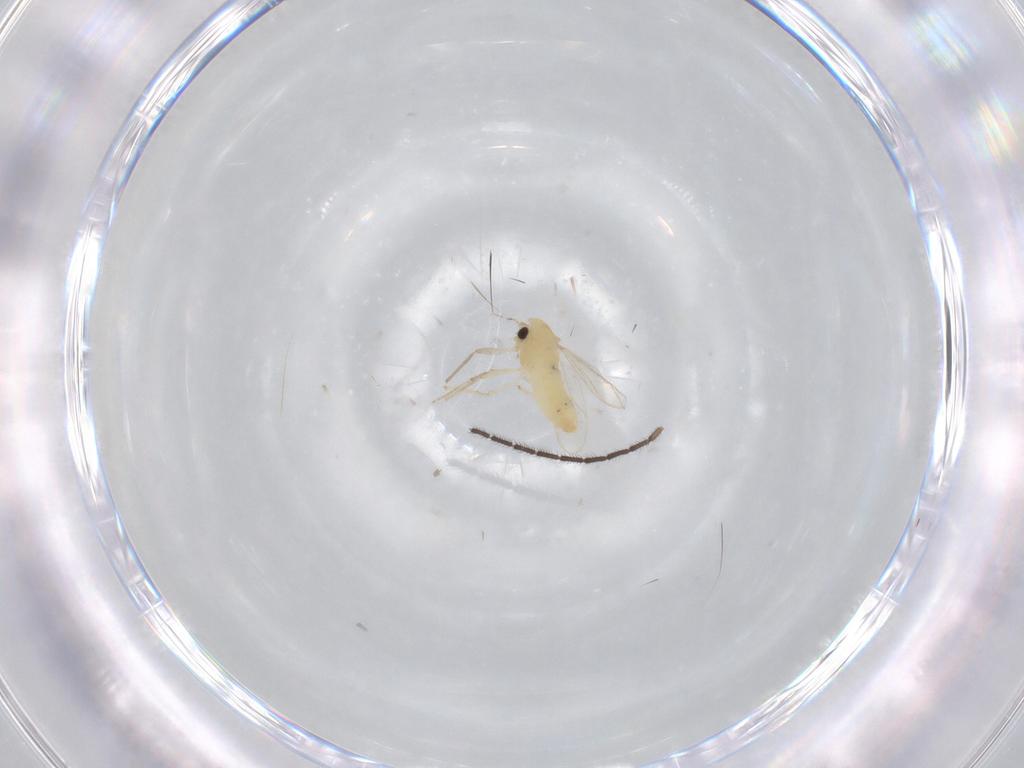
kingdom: Animalia
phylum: Arthropoda
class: Insecta
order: Diptera
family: Chironomidae
